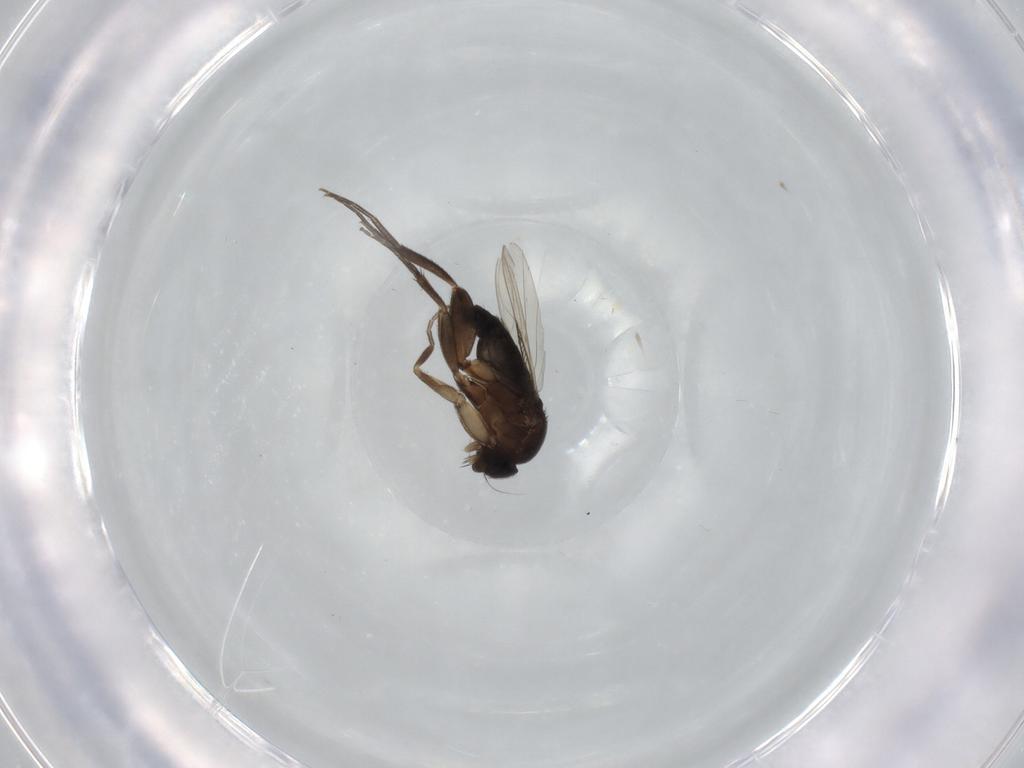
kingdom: Animalia
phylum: Arthropoda
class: Insecta
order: Diptera
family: Phoridae
